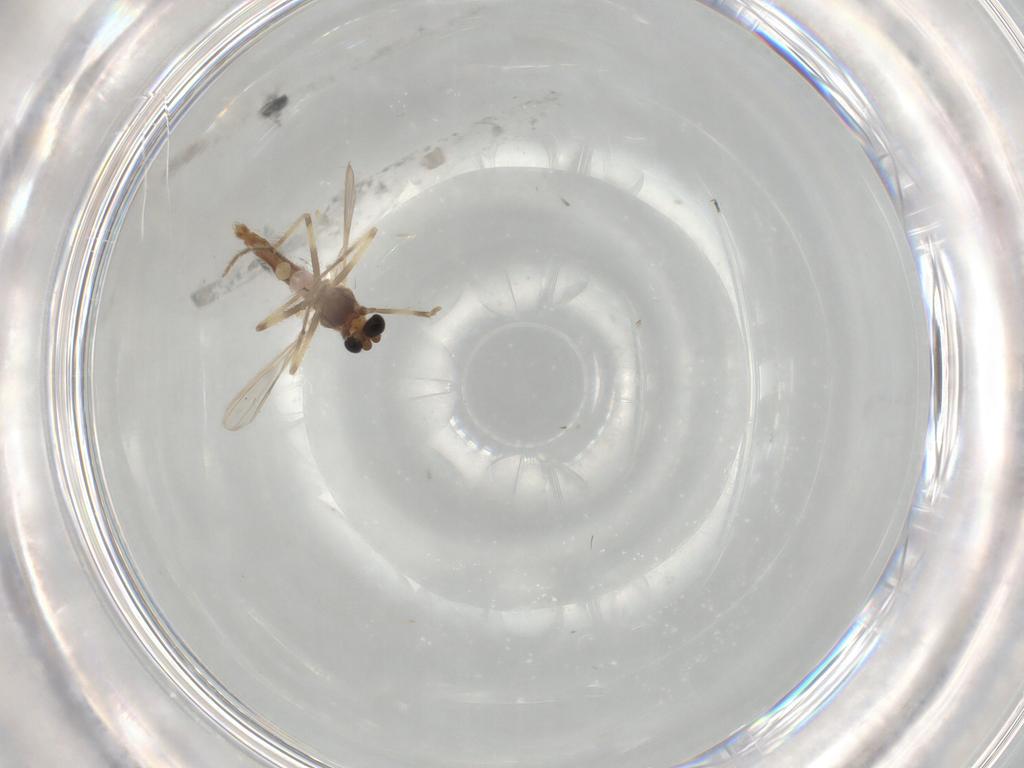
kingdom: Animalia
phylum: Arthropoda
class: Insecta
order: Diptera
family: Chironomidae
